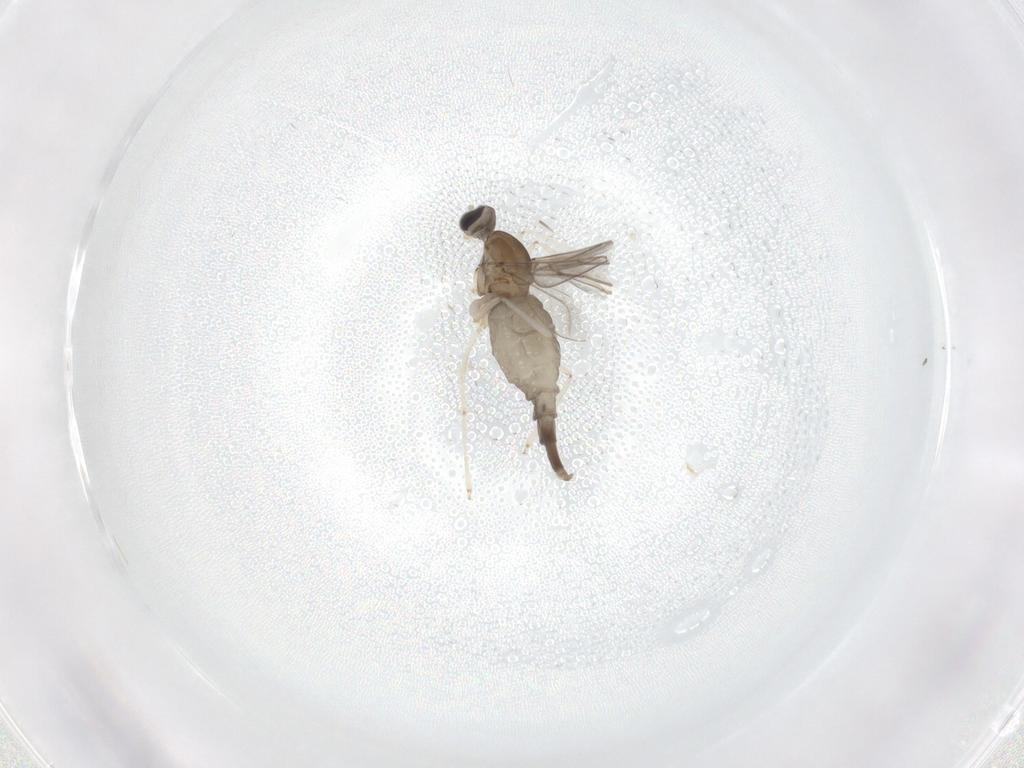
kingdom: Animalia
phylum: Arthropoda
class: Insecta
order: Diptera
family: Cecidomyiidae
